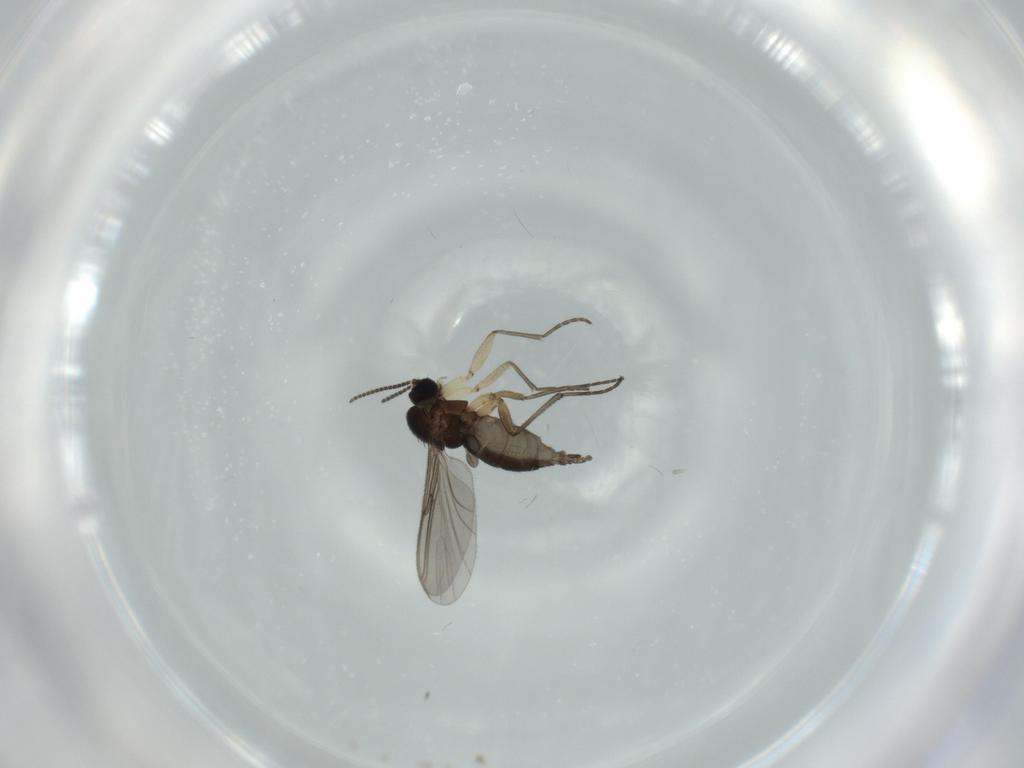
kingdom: Animalia
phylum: Arthropoda
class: Insecta
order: Diptera
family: Sciaridae
